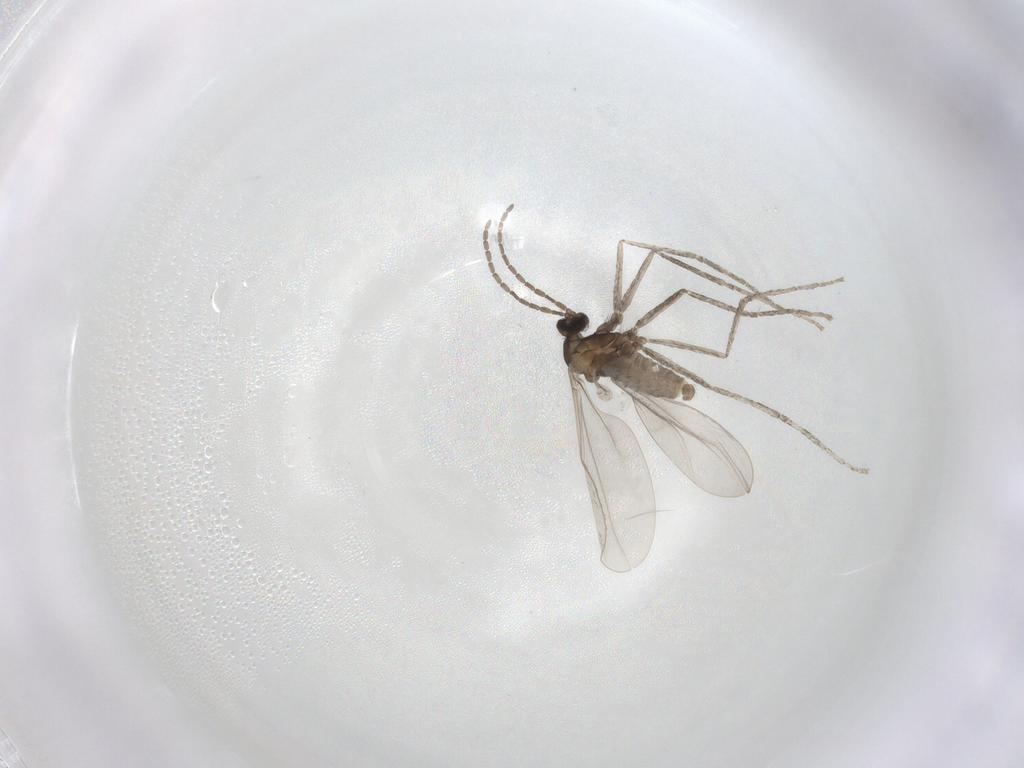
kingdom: Animalia
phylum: Arthropoda
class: Insecta
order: Diptera
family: Cecidomyiidae
